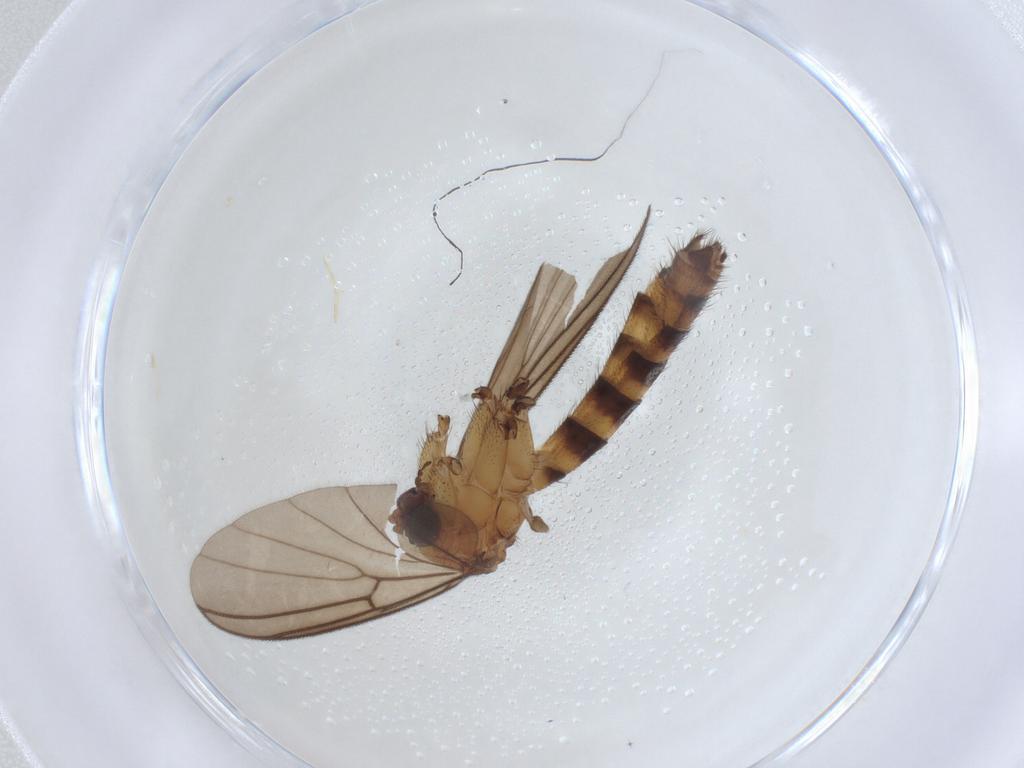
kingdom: Animalia
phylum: Arthropoda
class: Insecta
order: Diptera
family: Mycetophilidae
